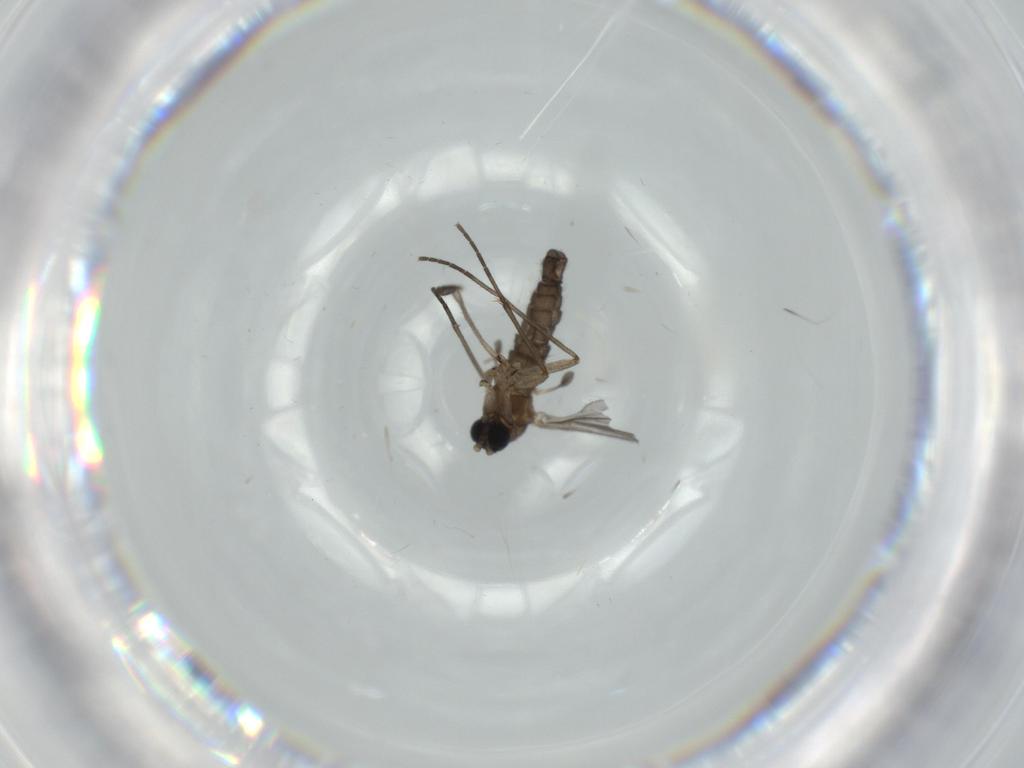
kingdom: Animalia
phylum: Arthropoda
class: Insecta
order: Diptera
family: Sciaridae
